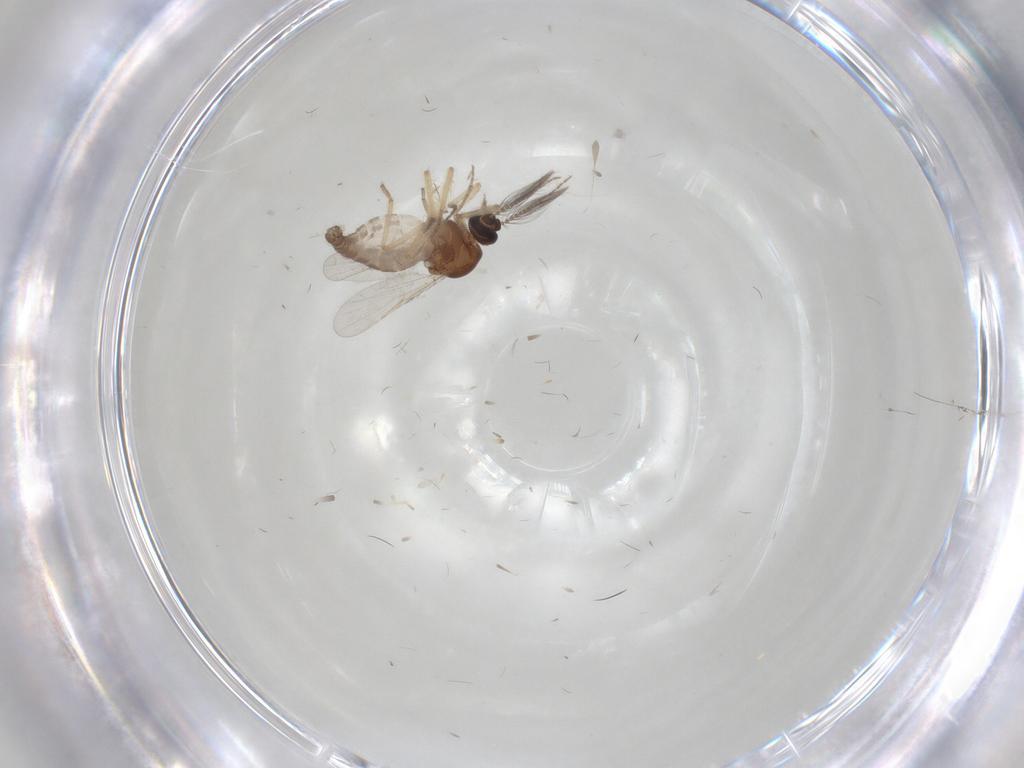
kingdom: Animalia
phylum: Arthropoda
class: Insecta
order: Diptera
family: Ceratopogonidae
